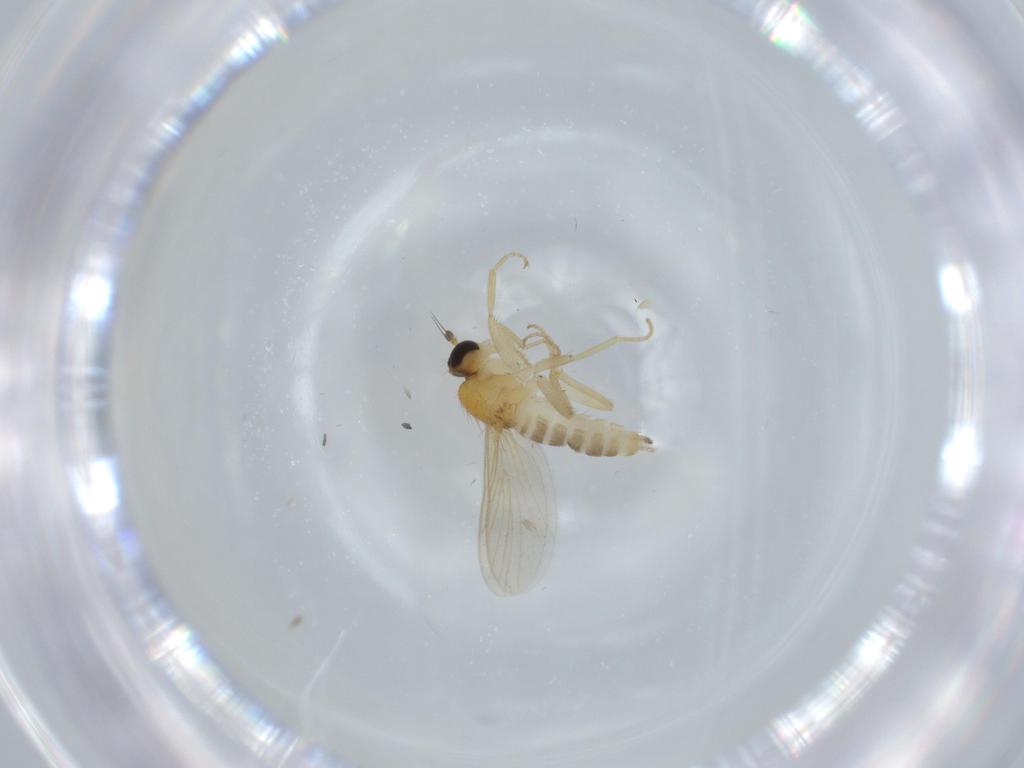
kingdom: Animalia
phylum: Arthropoda
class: Insecta
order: Diptera
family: Hybotidae
